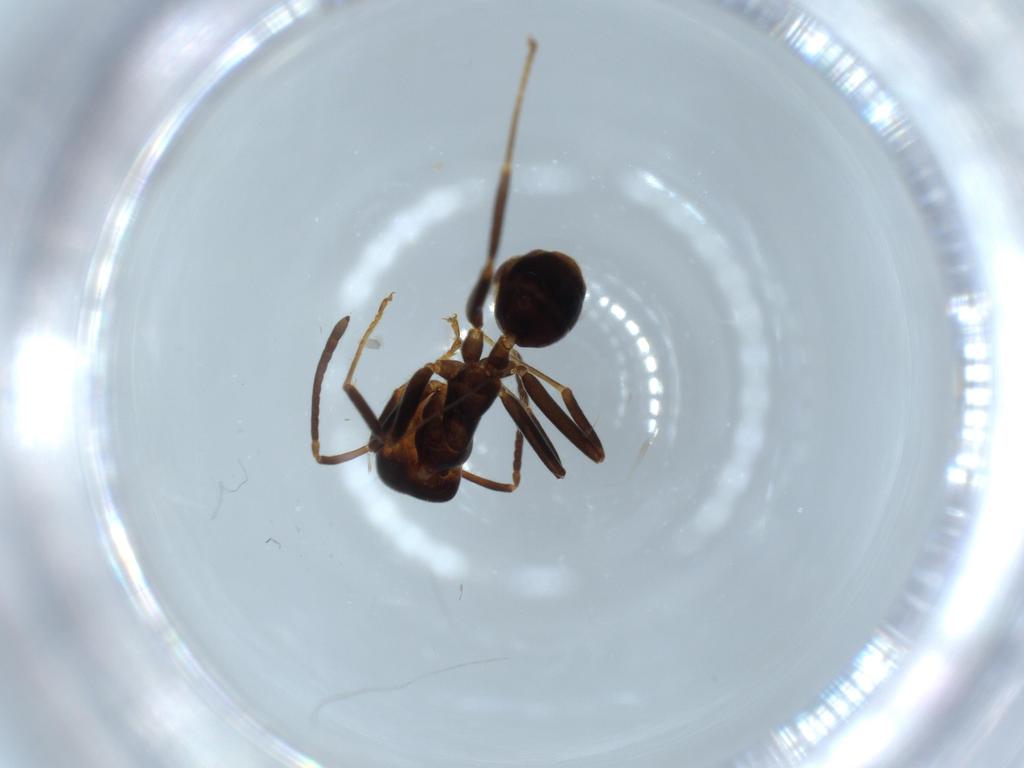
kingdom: Animalia
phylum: Arthropoda
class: Insecta
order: Hymenoptera
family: Formicidae
